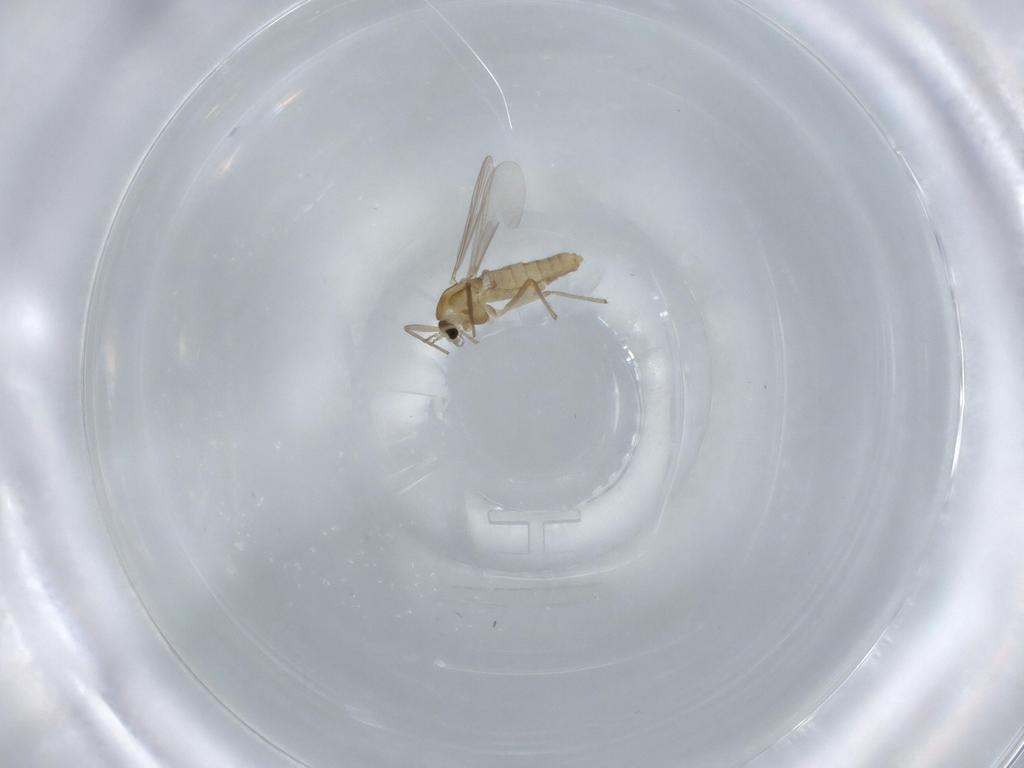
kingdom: Animalia
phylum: Arthropoda
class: Insecta
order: Diptera
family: Chironomidae
